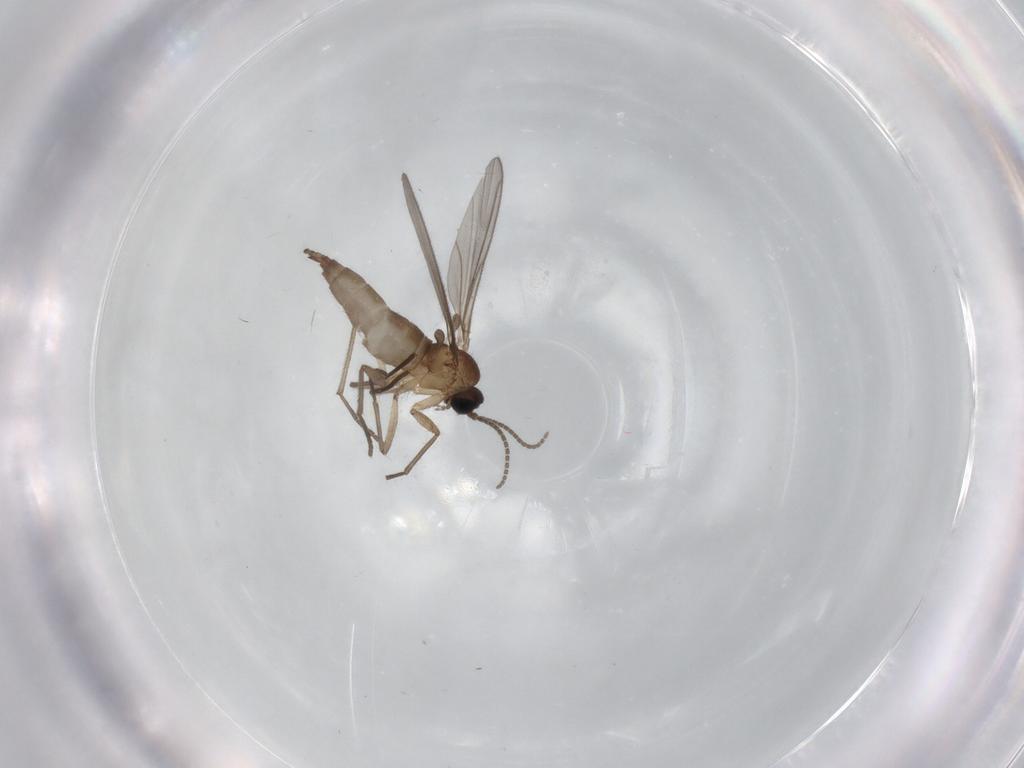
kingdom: Animalia
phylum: Arthropoda
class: Insecta
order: Diptera
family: Sciaridae
